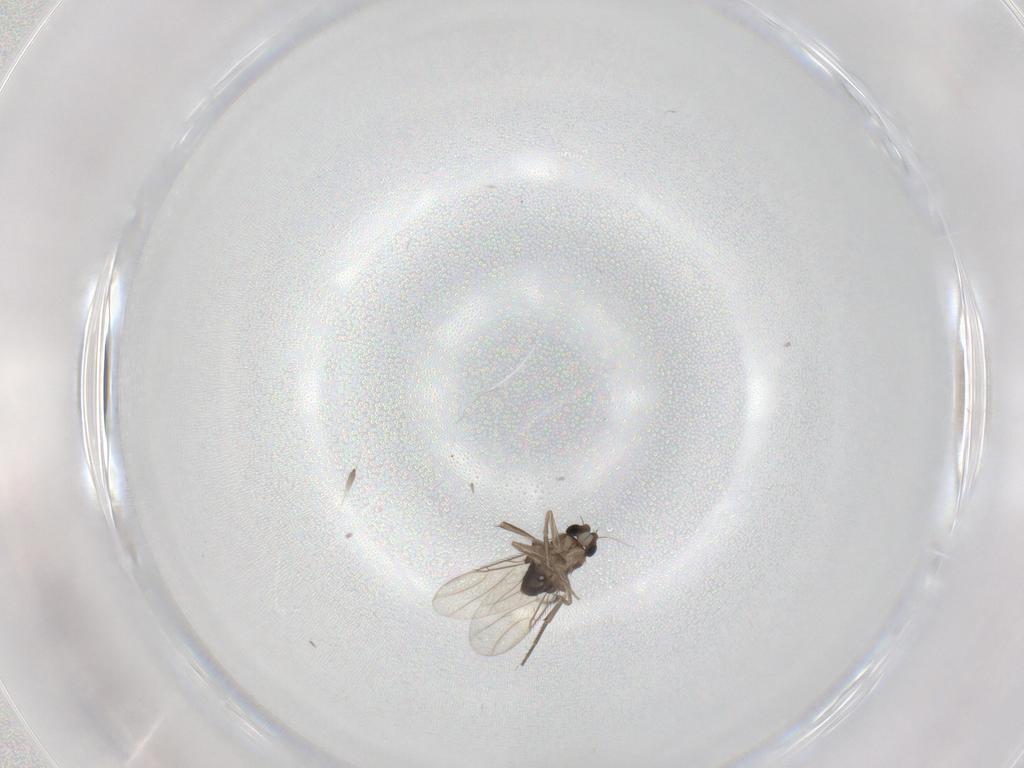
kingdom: Animalia
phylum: Arthropoda
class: Insecta
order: Diptera
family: Phoridae
